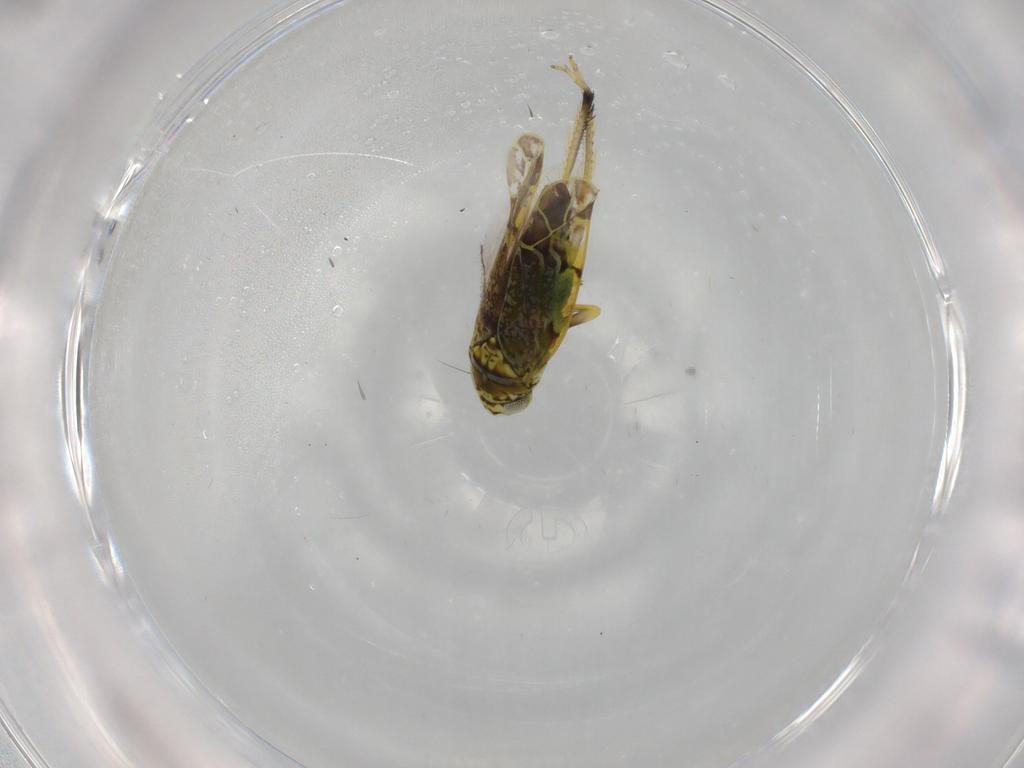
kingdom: Animalia
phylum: Arthropoda
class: Insecta
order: Hemiptera
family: Cicadellidae
